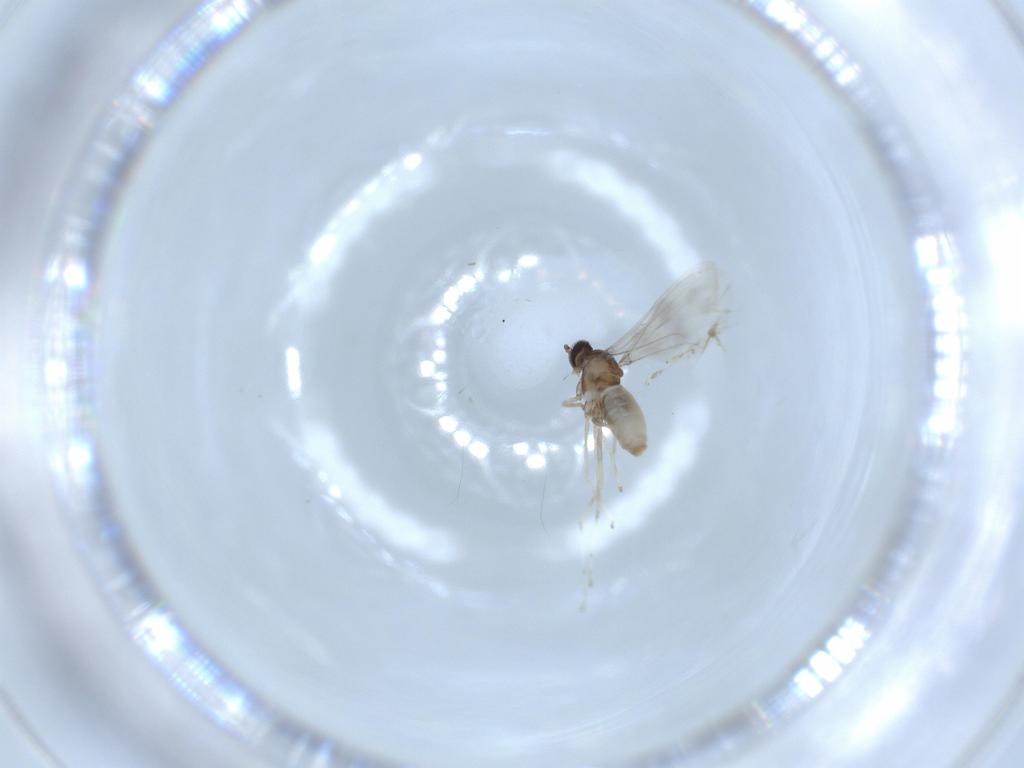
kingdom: Animalia
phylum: Arthropoda
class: Insecta
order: Diptera
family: Cecidomyiidae
